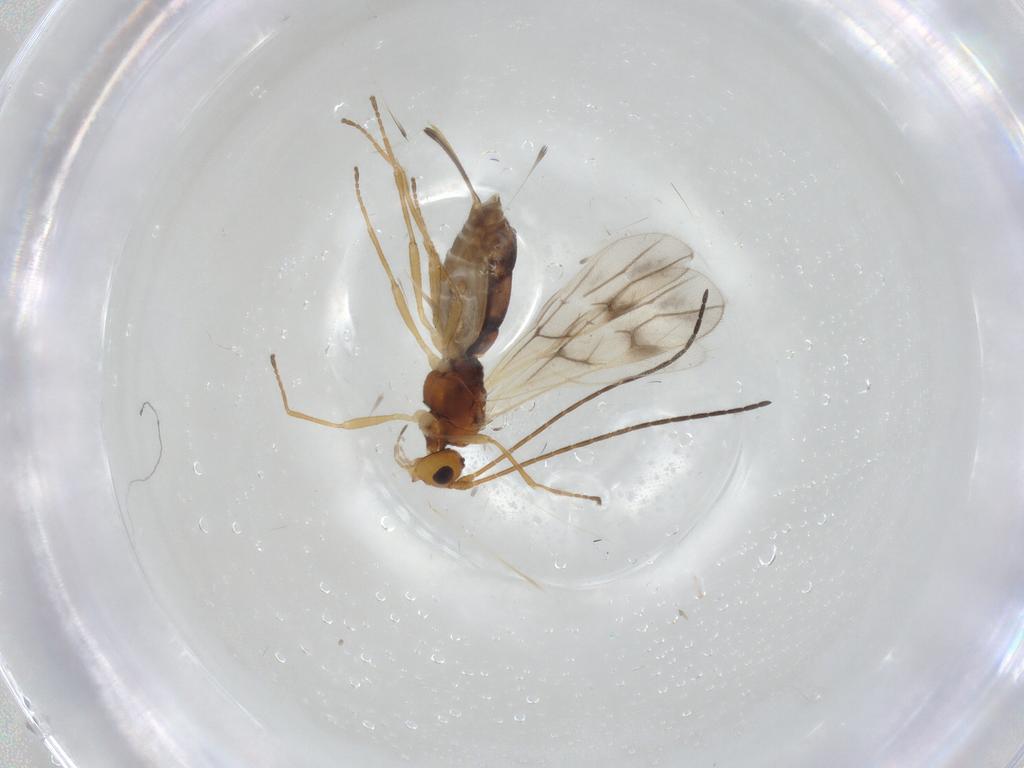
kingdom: Animalia
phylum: Arthropoda
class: Insecta
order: Hymenoptera
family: Braconidae
